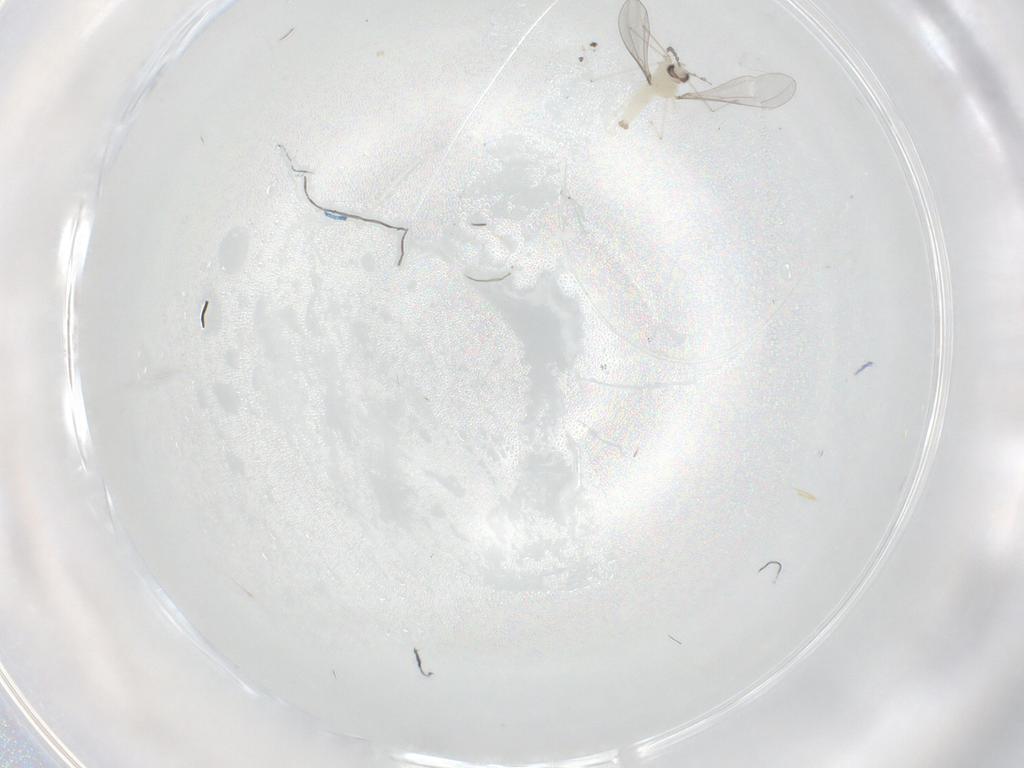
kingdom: Animalia
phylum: Arthropoda
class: Insecta
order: Diptera
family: Cecidomyiidae
